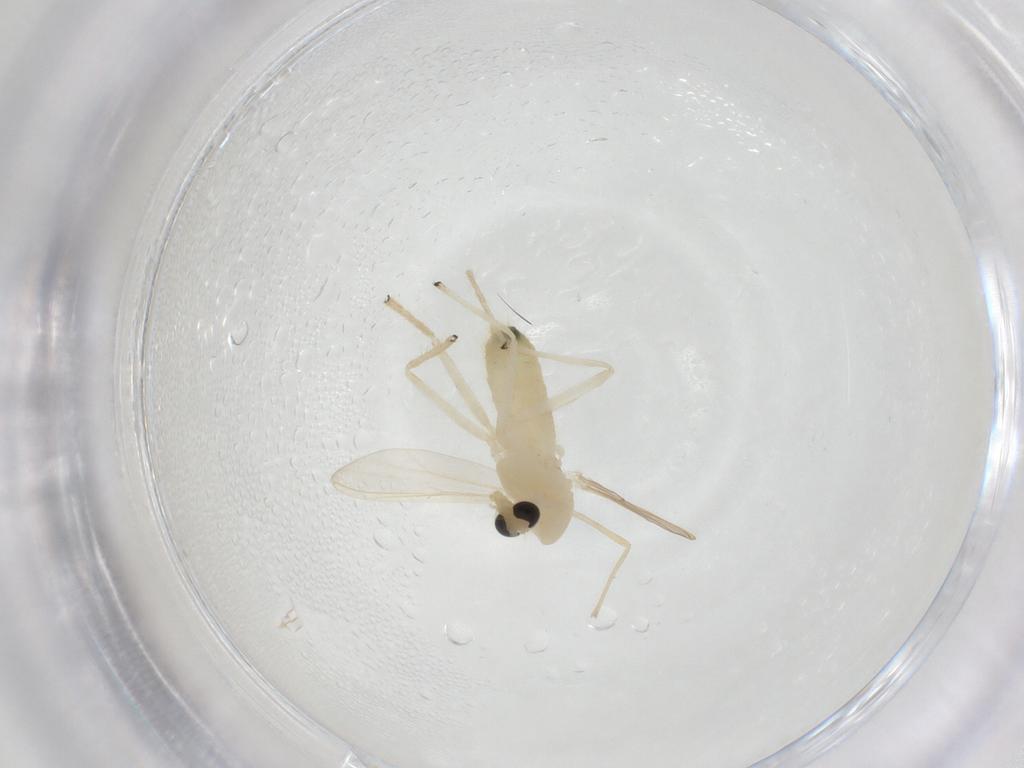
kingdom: Animalia
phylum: Arthropoda
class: Insecta
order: Diptera
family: Chironomidae
